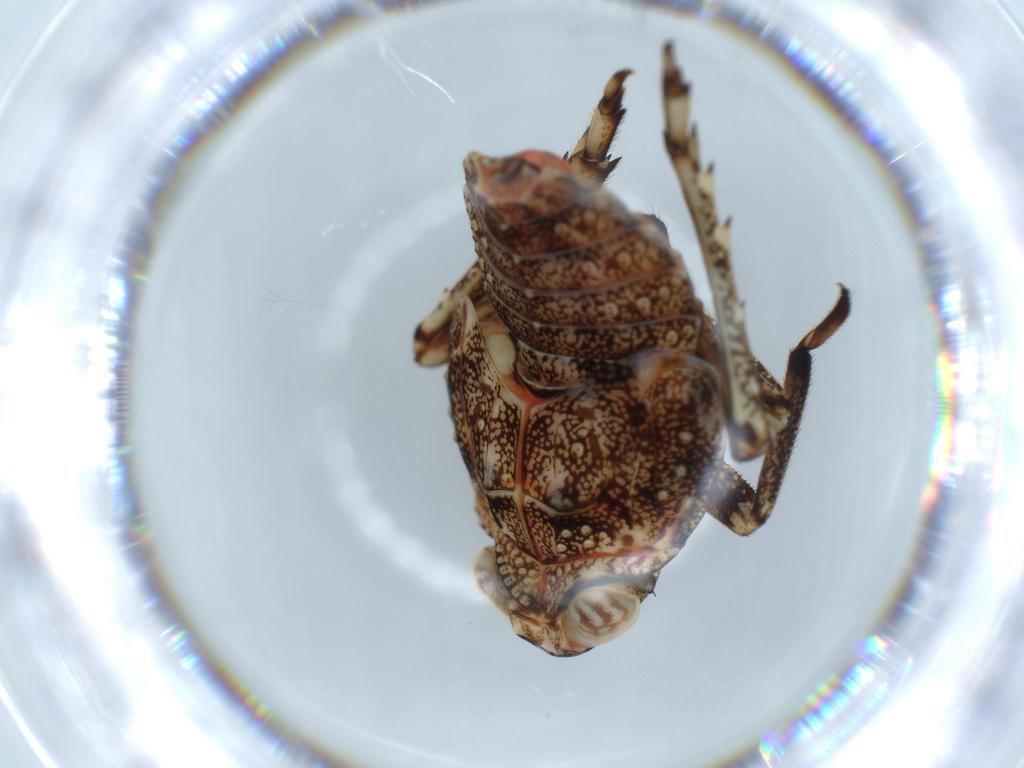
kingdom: Animalia
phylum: Arthropoda
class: Insecta
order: Hemiptera
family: Issidae
